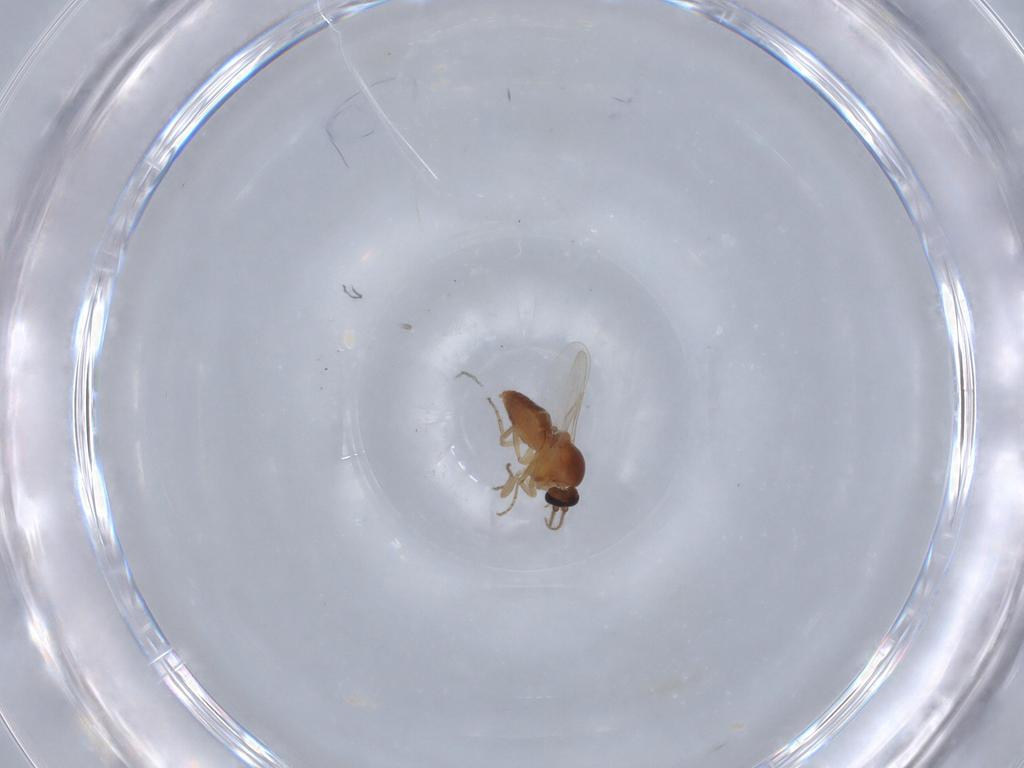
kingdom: Animalia
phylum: Arthropoda
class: Insecta
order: Diptera
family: Ceratopogonidae
